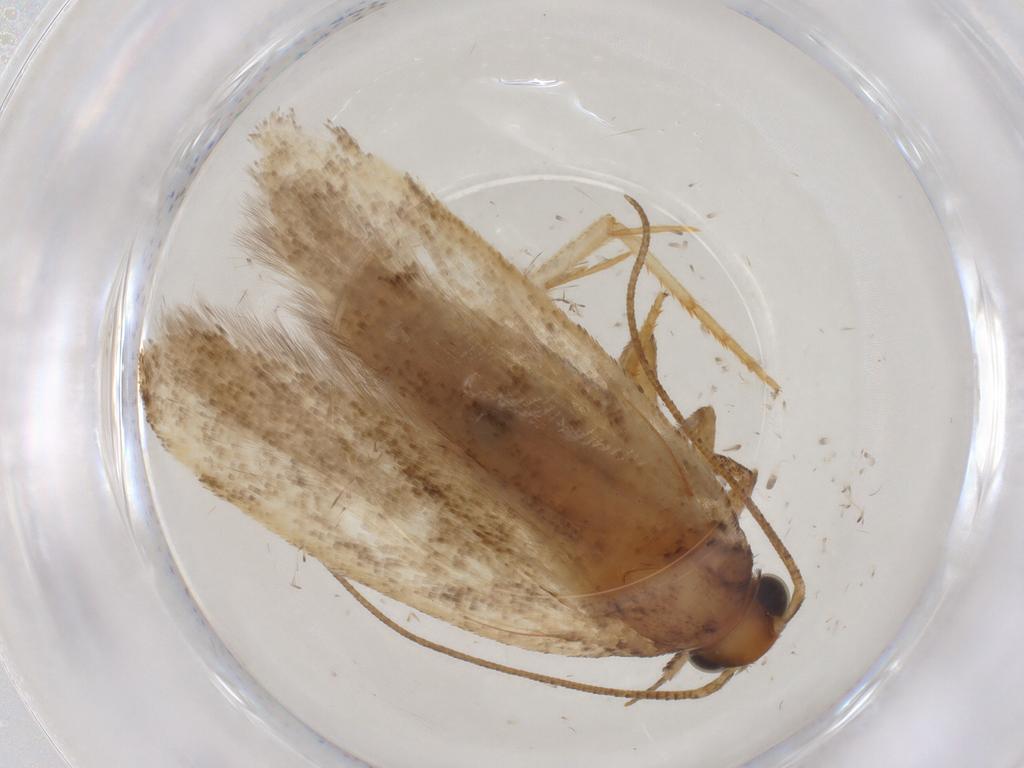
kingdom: Animalia
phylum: Arthropoda
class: Insecta
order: Lepidoptera
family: Gelechiidae
